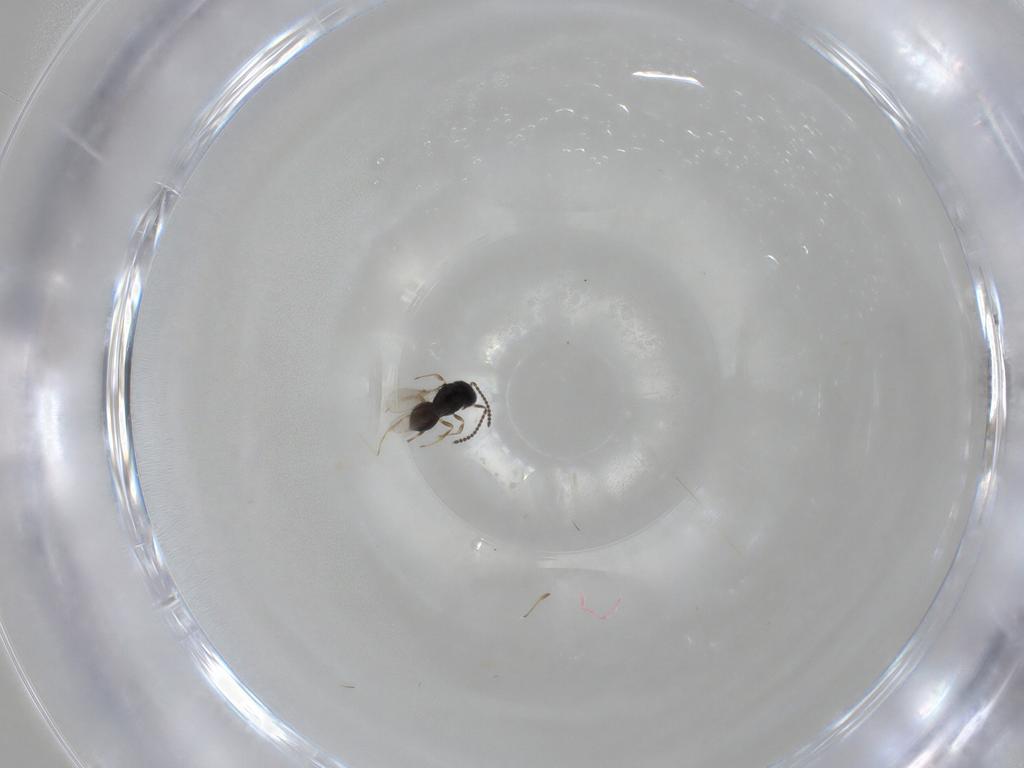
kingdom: Animalia
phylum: Arthropoda
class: Insecta
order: Hymenoptera
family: Scelionidae
